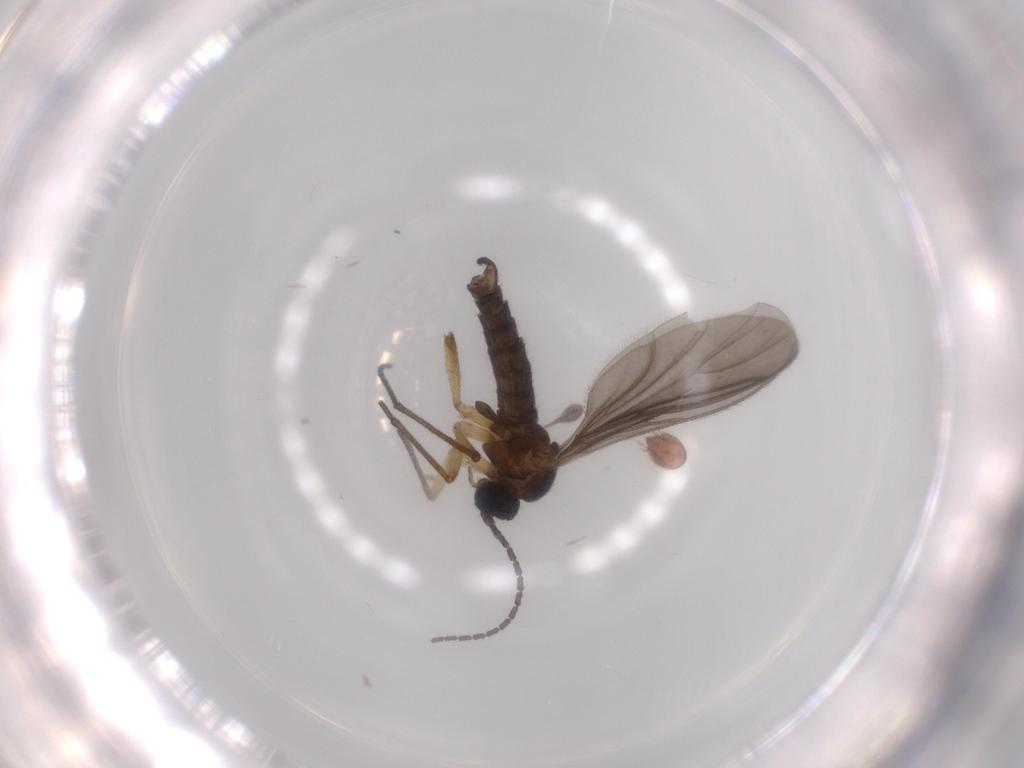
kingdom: Animalia
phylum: Arthropoda
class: Insecta
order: Diptera
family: Sciaridae
